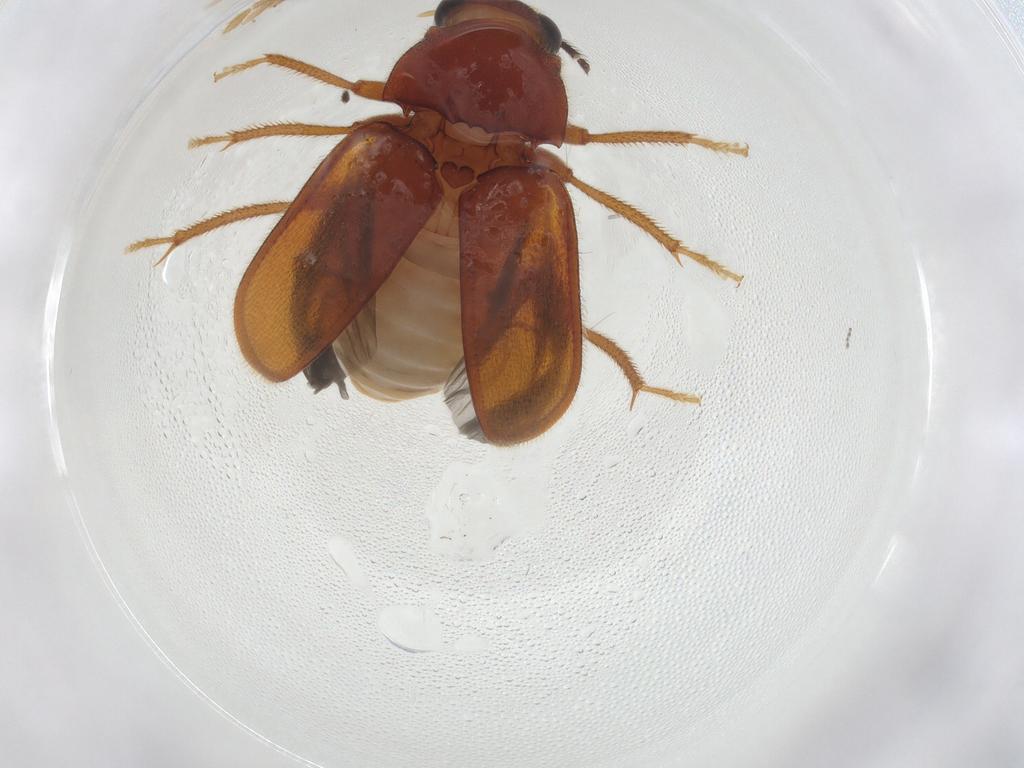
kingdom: Animalia
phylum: Arthropoda
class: Insecta
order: Coleoptera
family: Ptilodactylidae
